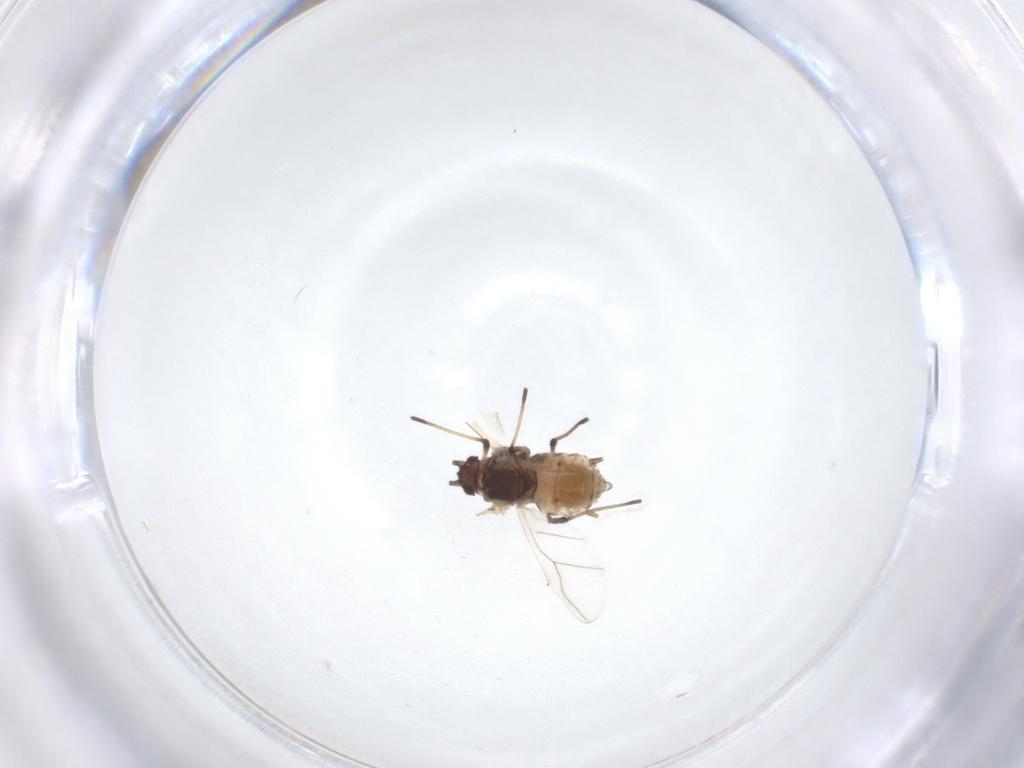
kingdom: Animalia
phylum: Arthropoda
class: Insecta
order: Hemiptera
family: Aphididae
